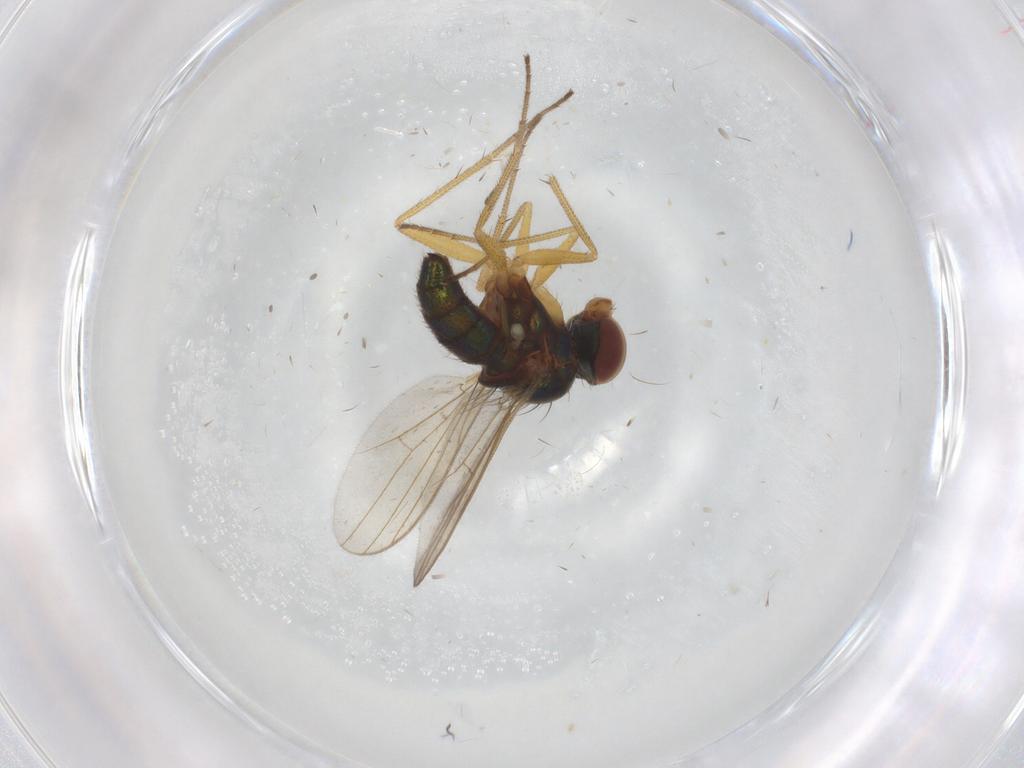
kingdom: Animalia
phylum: Arthropoda
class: Insecta
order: Diptera
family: Dolichopodidae
